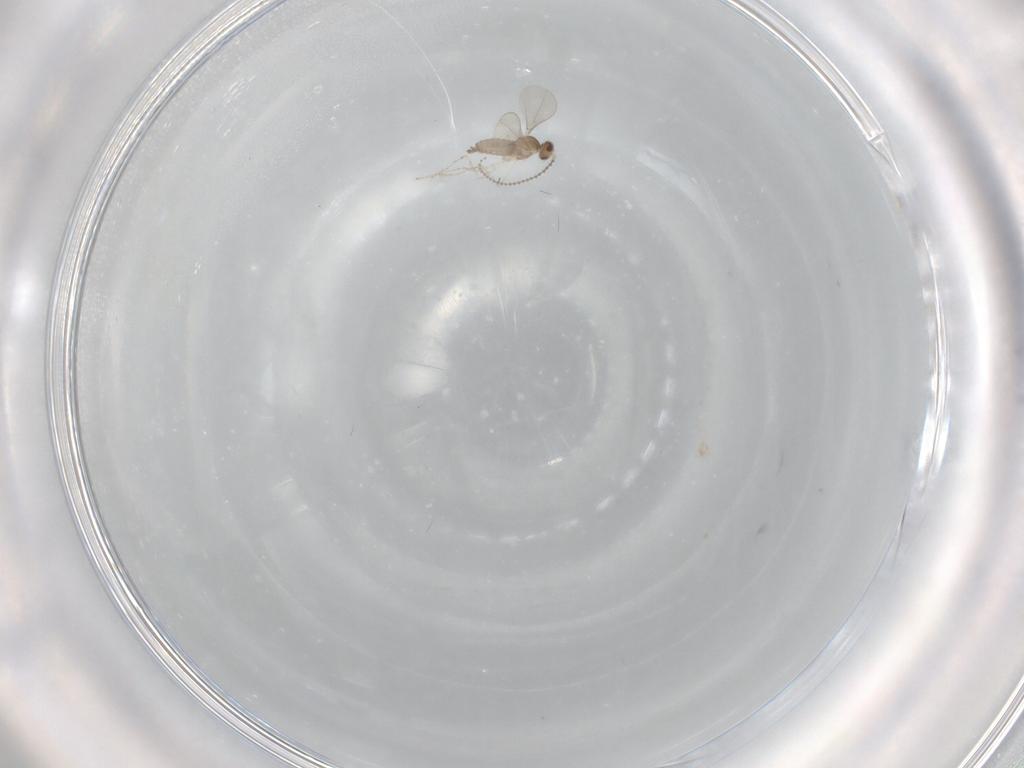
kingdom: Animalia
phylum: Arthropoda
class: Insecta
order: Diptera
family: Cecidomyiidae
